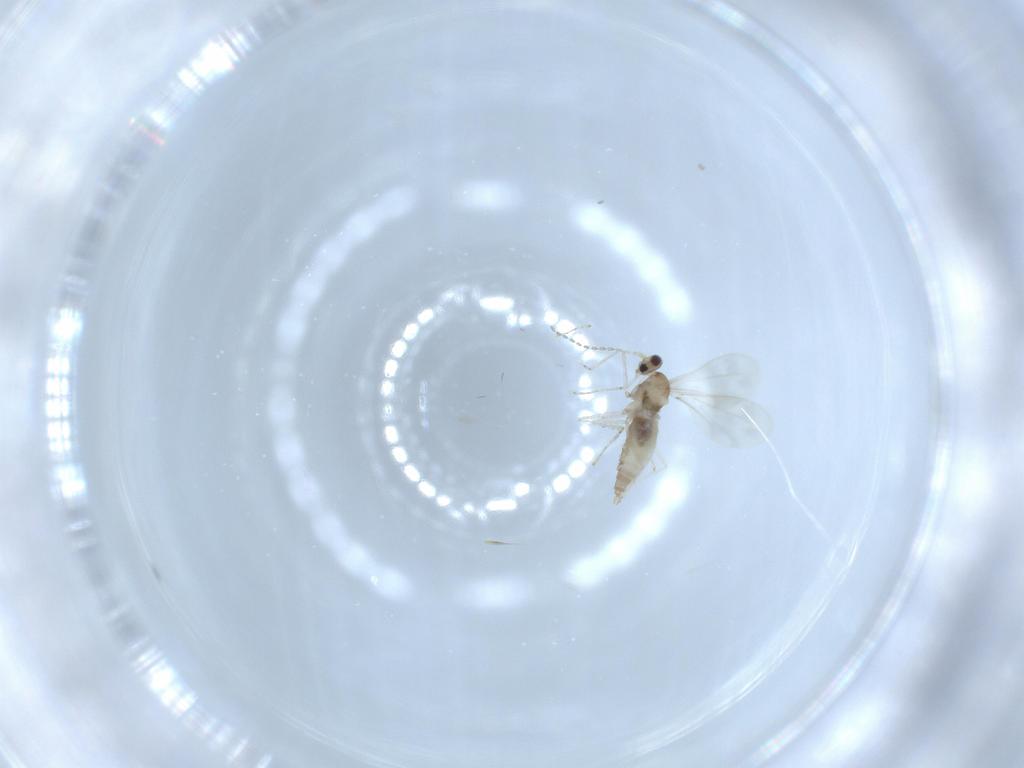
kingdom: Animalia
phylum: Arthropoda
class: Insecta
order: Diptera
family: Cecidomyiidae
